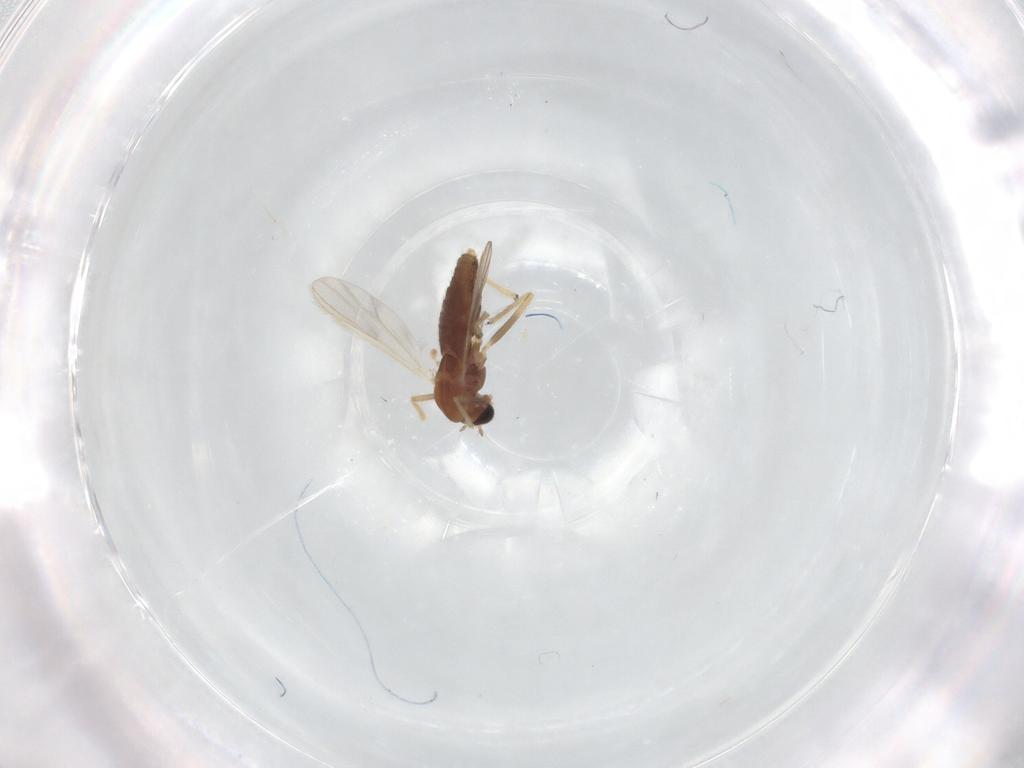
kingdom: Animalia
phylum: Arthropoda
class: Insecta
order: Diptera
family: Chironomidae
